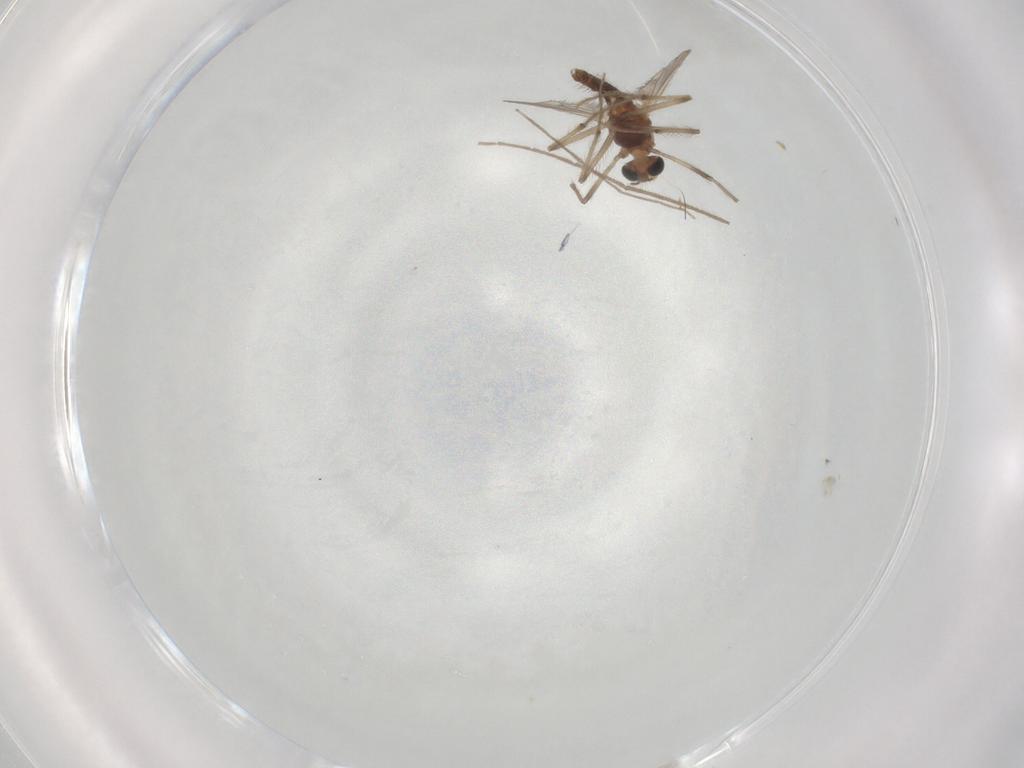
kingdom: Animalia
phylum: Arthropoda
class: Insecta
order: Diptera
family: Chironomidae
